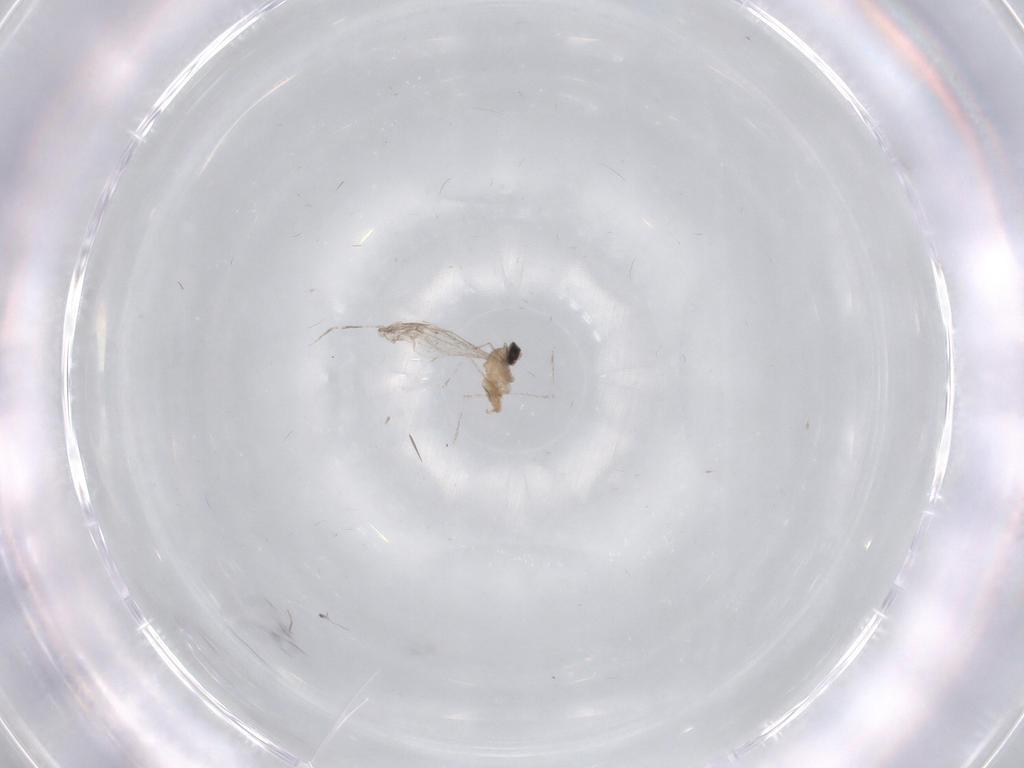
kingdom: Animalia
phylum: Arthropoda
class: Insecta
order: Diptera
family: Cecidomyiidae
